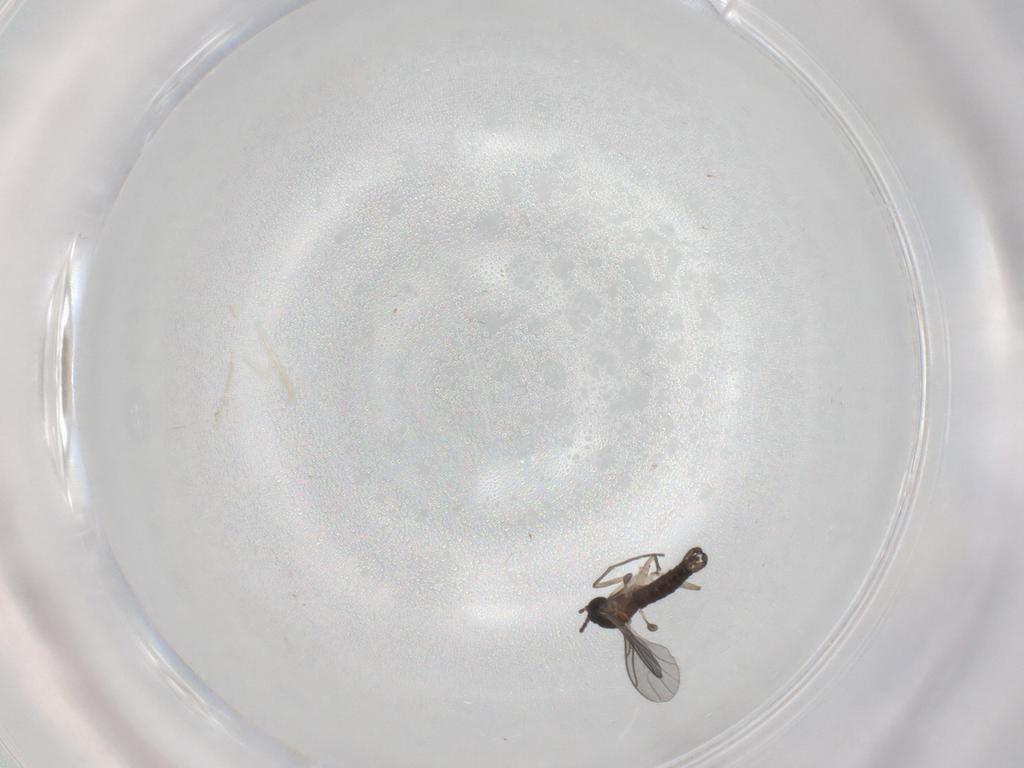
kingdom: Animalia
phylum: Arthropoda
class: Insecta
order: Diptera
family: Sciaridae
